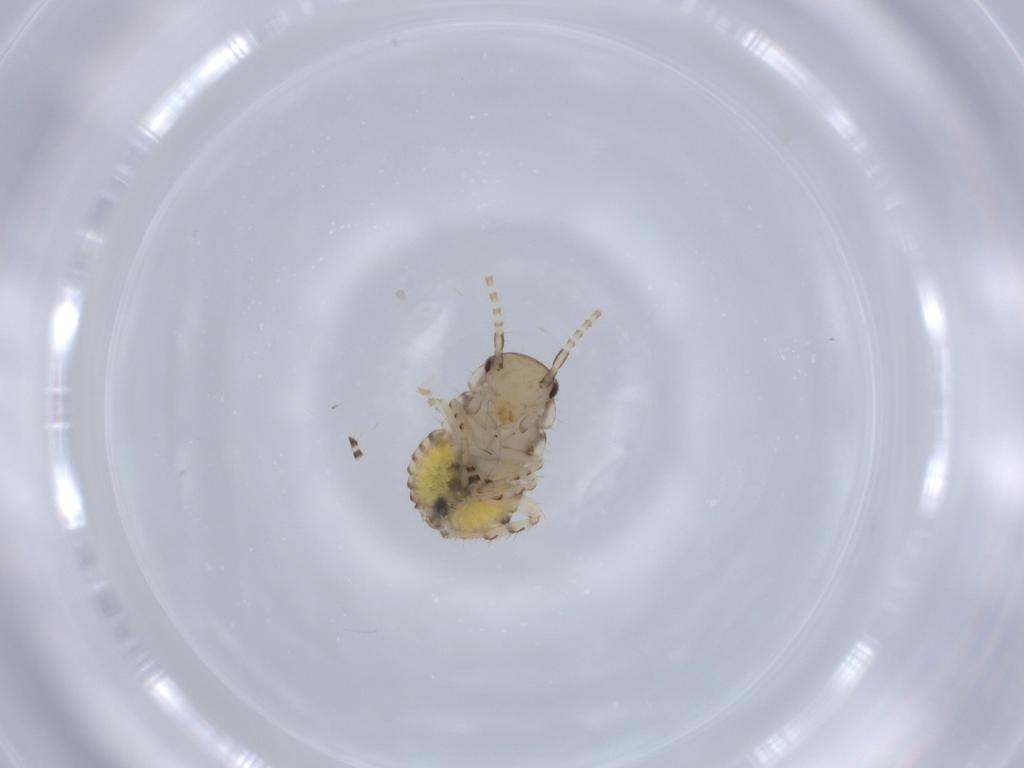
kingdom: Animalia
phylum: Arthropoda
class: Insecta
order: Blattodea
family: Ectobiidae
